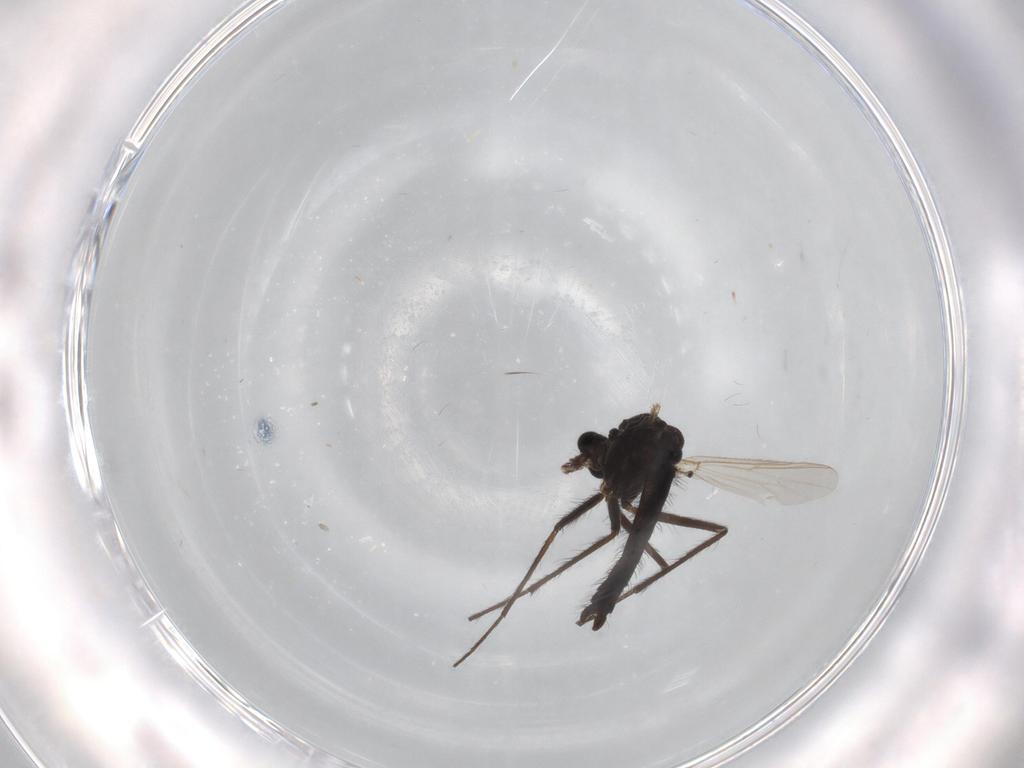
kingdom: Animalia
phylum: Arthropoda
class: Insecta
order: Diptera
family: Chironomidae
